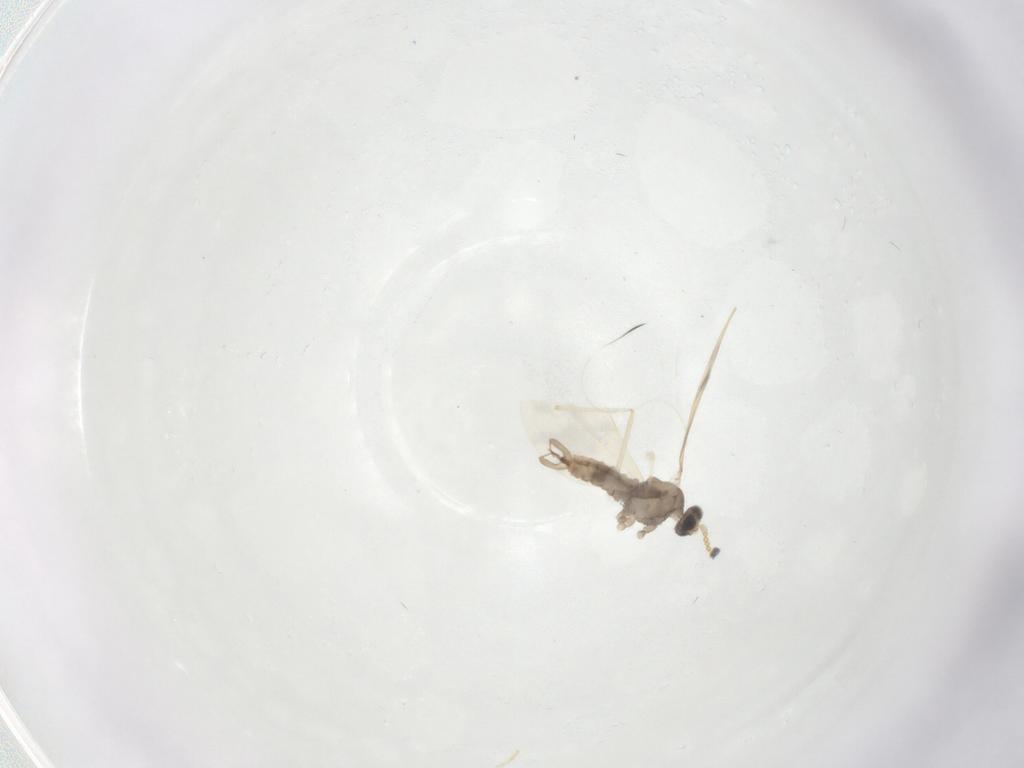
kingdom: Animalia
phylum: Arthropoda
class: Insecta
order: Diptera
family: Cecidomyiidae
